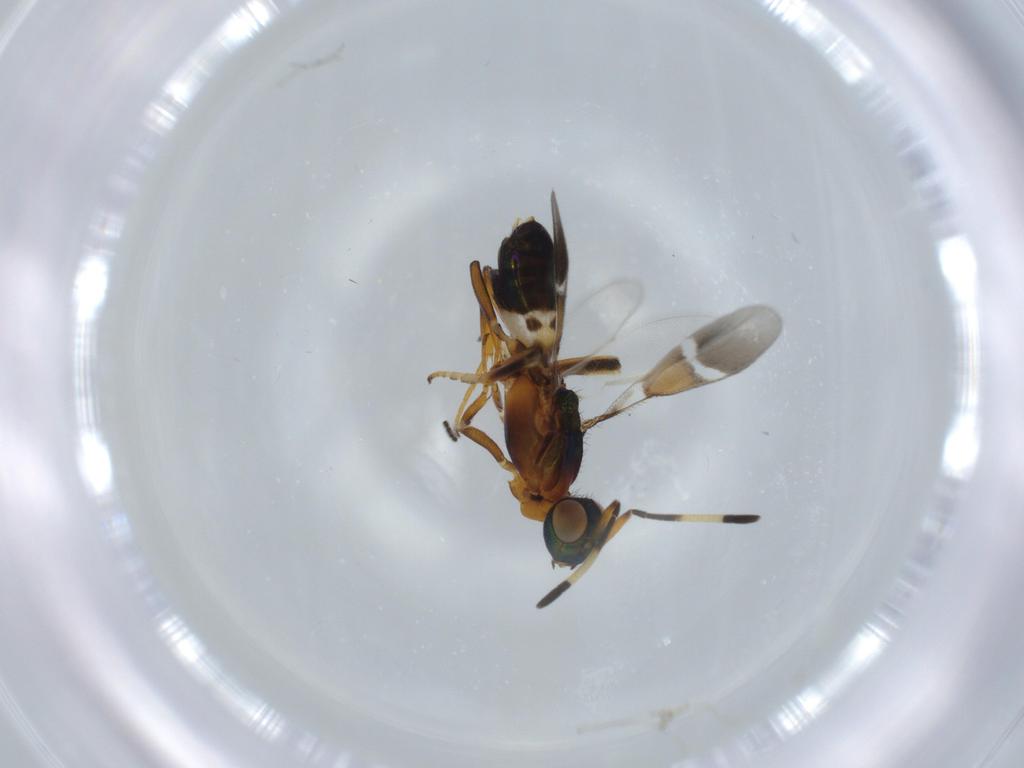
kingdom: Animalia
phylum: Arthropoda
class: Insecta
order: Hymenoptera
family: Eupelmidae
